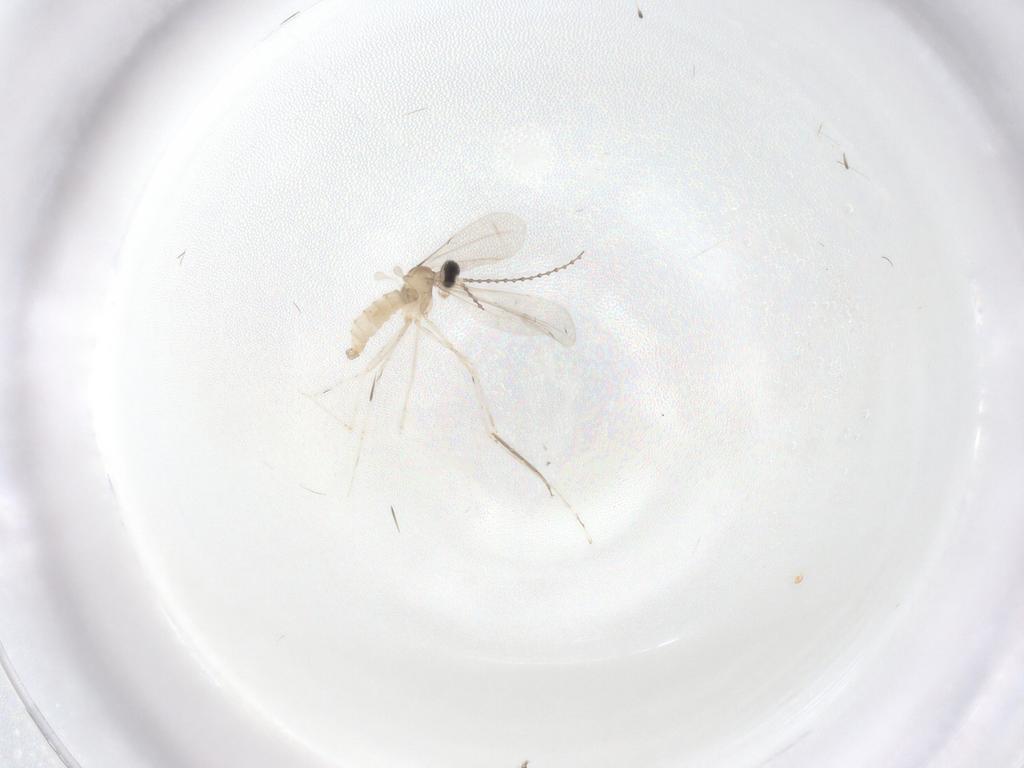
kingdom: Animalia
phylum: Arthropoda
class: Insecta
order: Diptera
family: Cecidomyiidae
